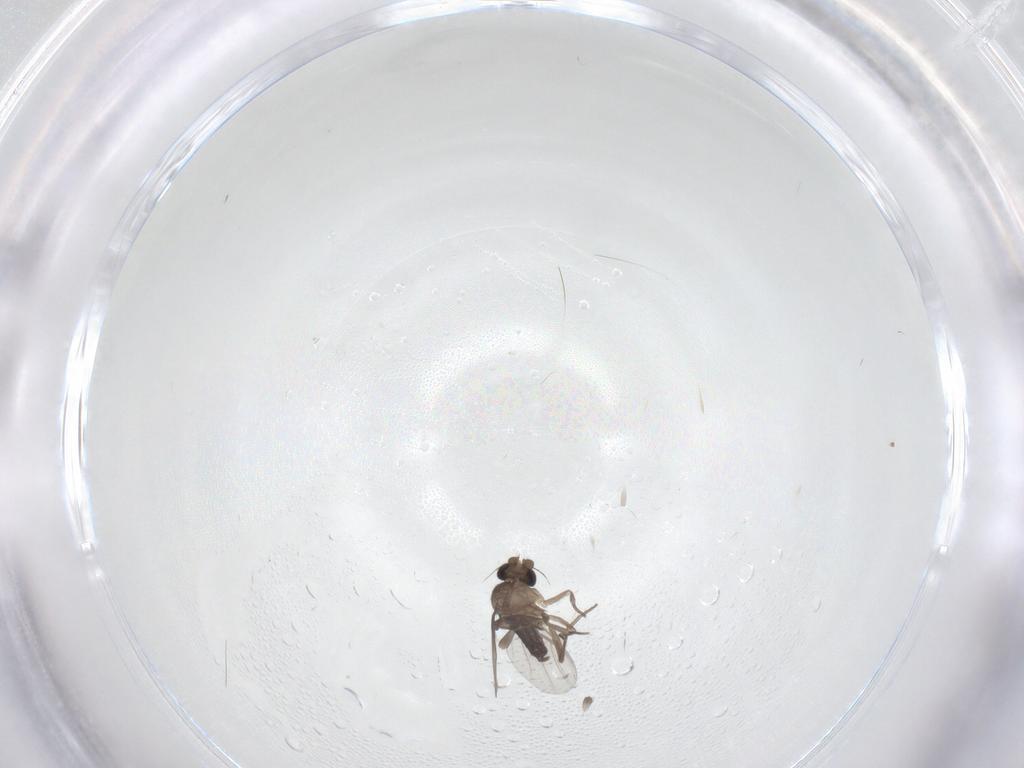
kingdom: Animalia
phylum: Arthropoda
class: Insecta
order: Diptera
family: Phoridae
